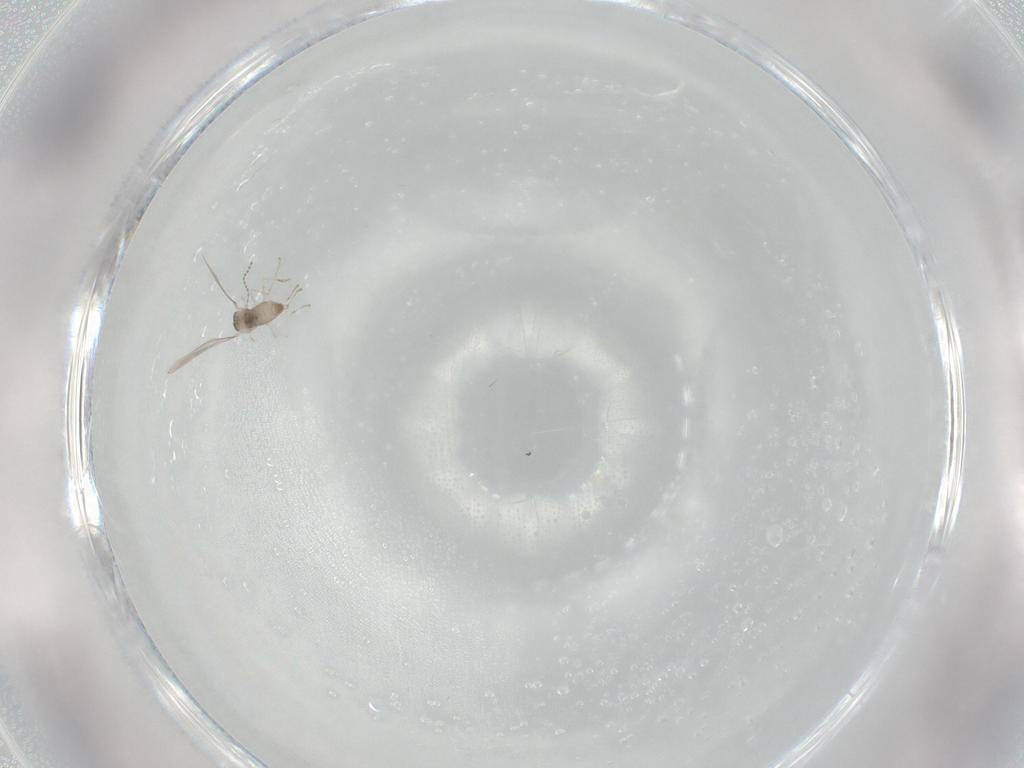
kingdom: Animalia
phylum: Arthropoda
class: Insecta
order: Diptera
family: Cecidomyiidae
